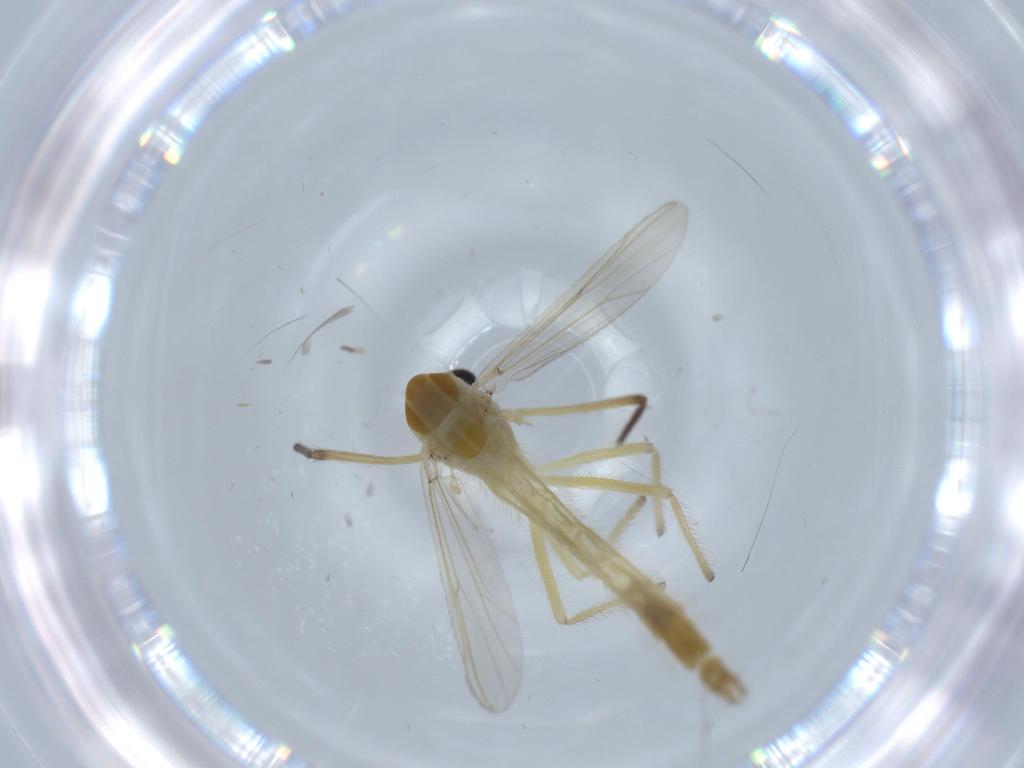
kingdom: Animalia
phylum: Arthropoda
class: Insecta
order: Diptera
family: Chironomidae
